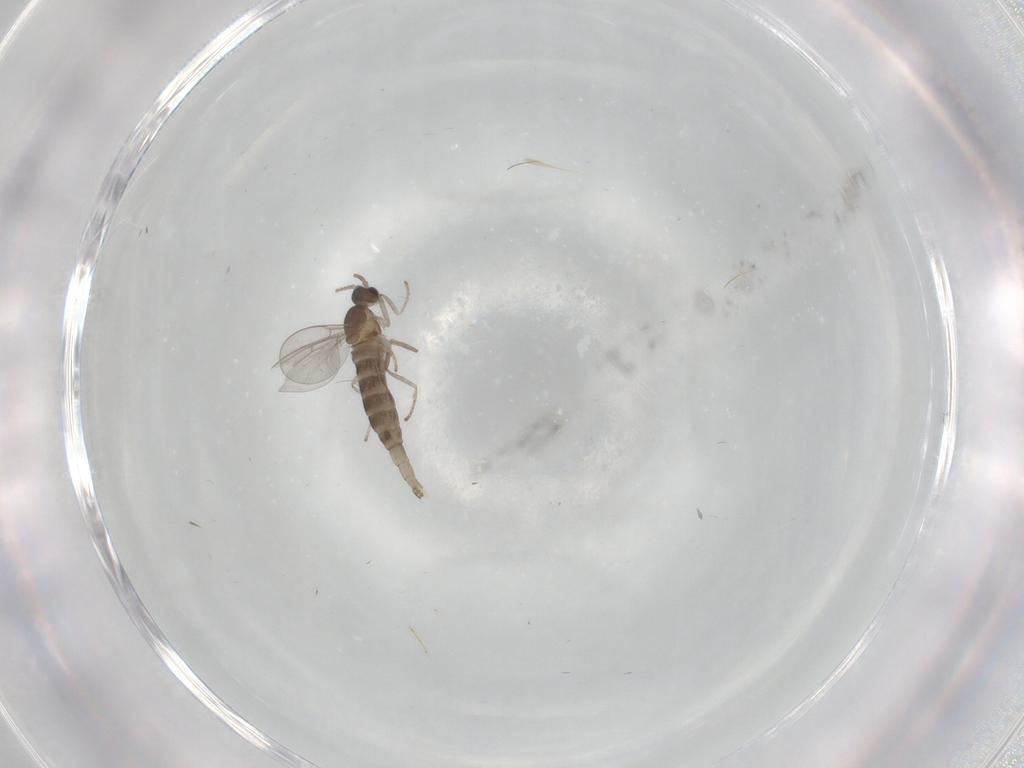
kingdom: Animalia
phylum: Arthropoda
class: Insecta
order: Diptera
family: Cecidomyiidae
